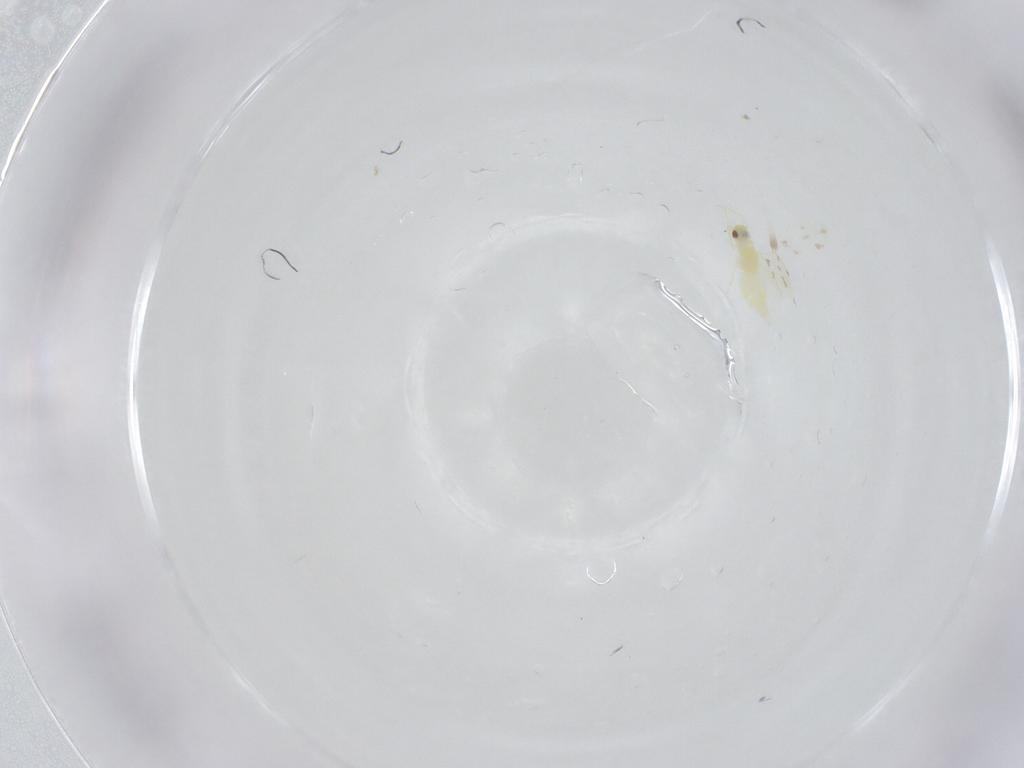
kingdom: Animalia
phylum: Arthropoda
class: Insecta
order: Hemiptera
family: Aleyrodidae
